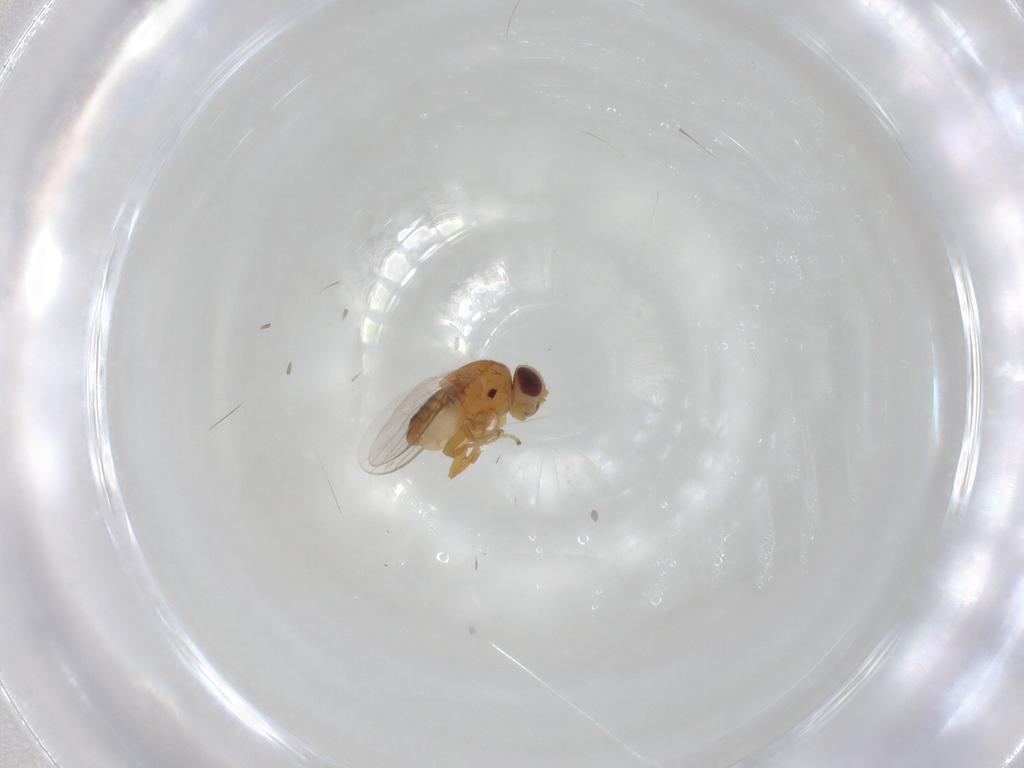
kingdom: Animalia
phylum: Arthropoda
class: Insecta
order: Diptera
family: Chloropidae
